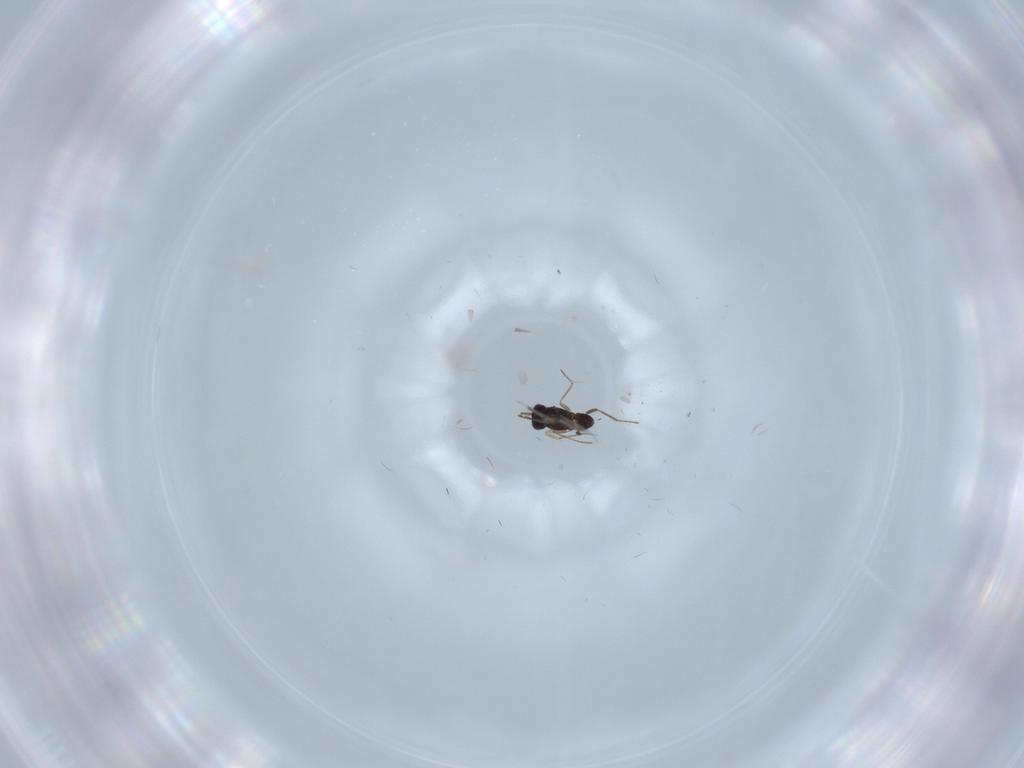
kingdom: Animalia
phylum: Arthropoda
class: Insecta
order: Hymenoptera
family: Mymaridae
